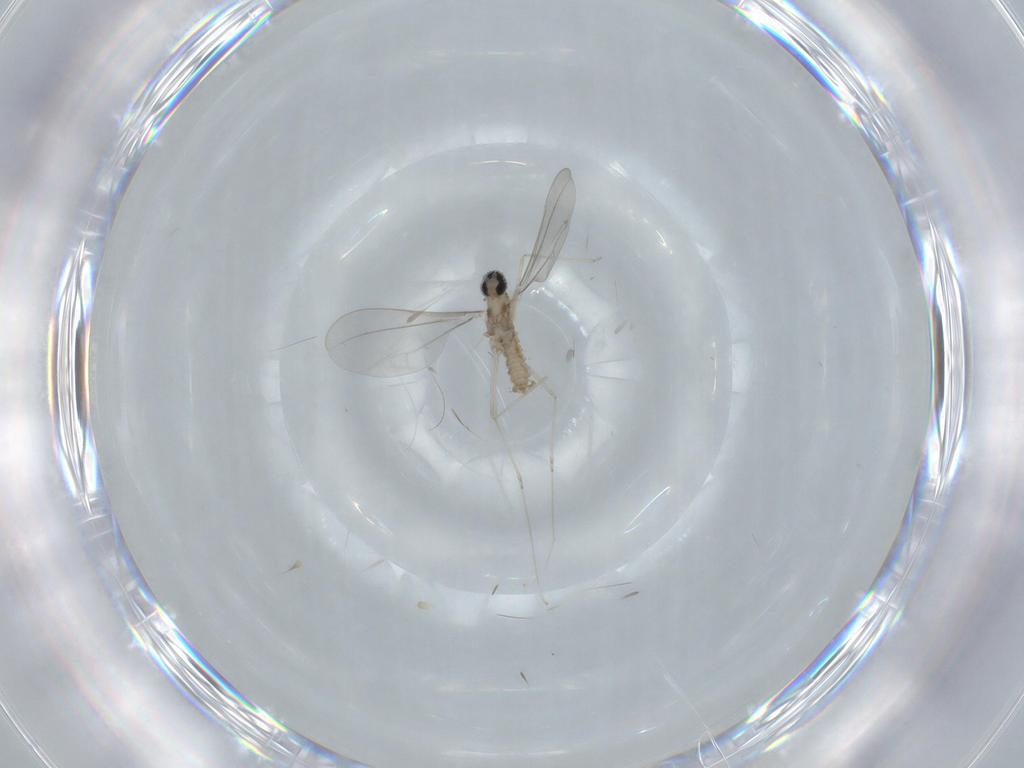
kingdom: Animalia
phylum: Arthropoda
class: Insecta
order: Diptera
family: Cecidomyiidae
